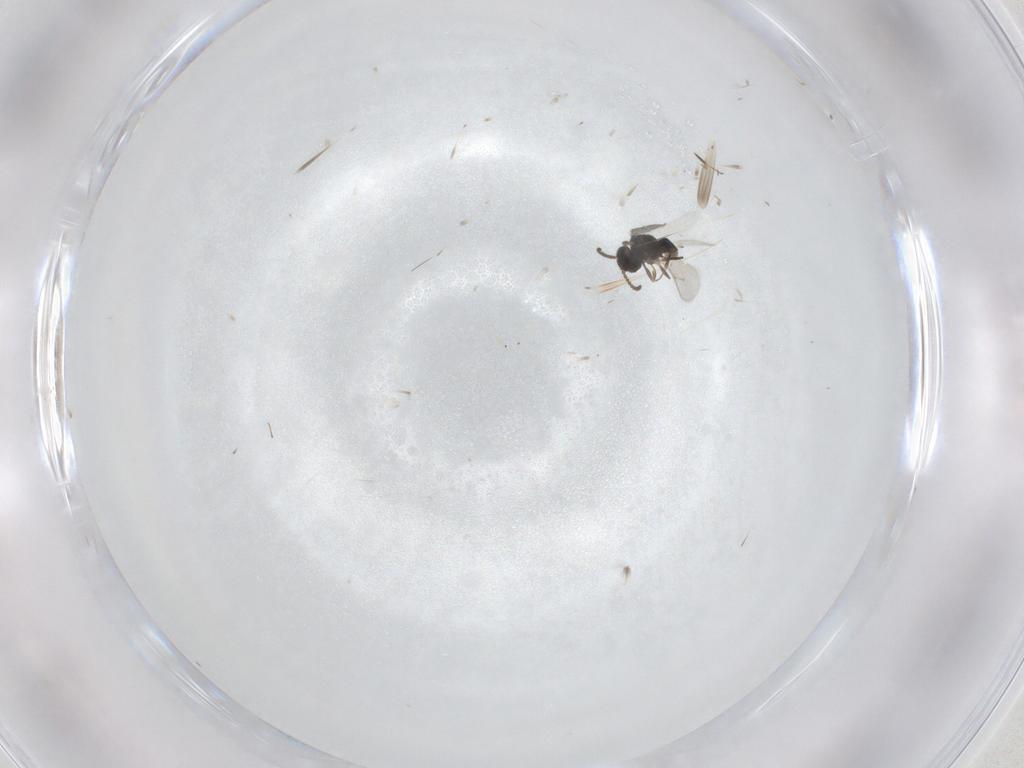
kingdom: Animalia
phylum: Arthropoda
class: Insecta
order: Hymenoptera
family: Scelionidae
